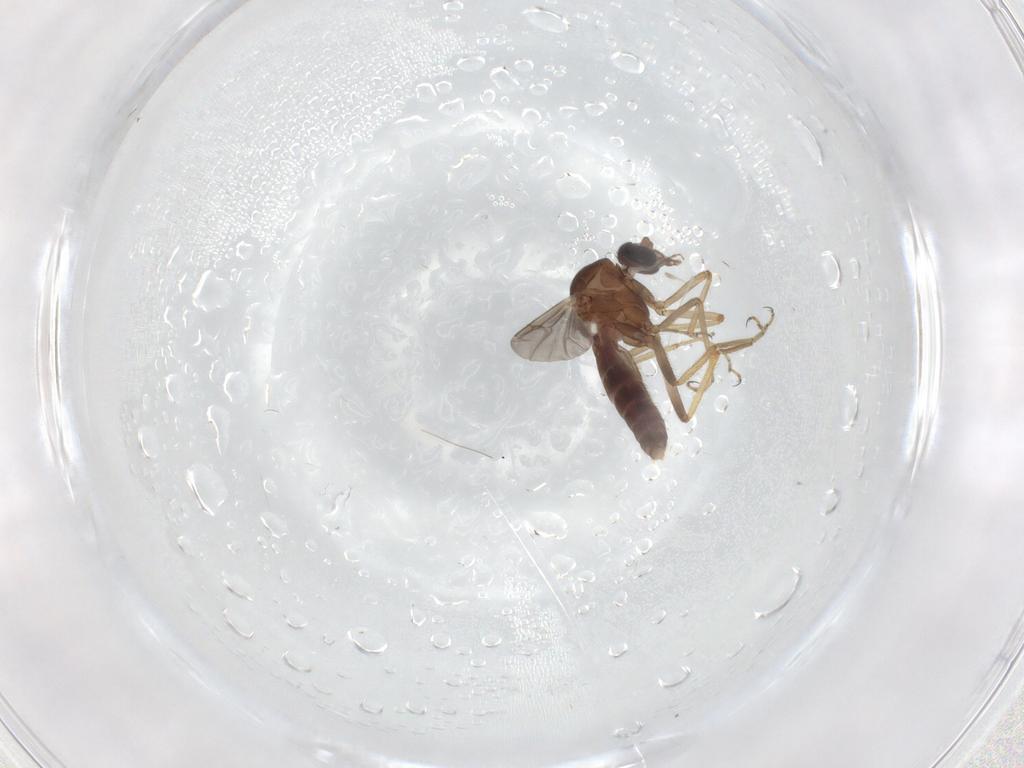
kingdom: Animalia
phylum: Arthropoda
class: Insecta
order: Diptera
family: Ceratopogonidae
